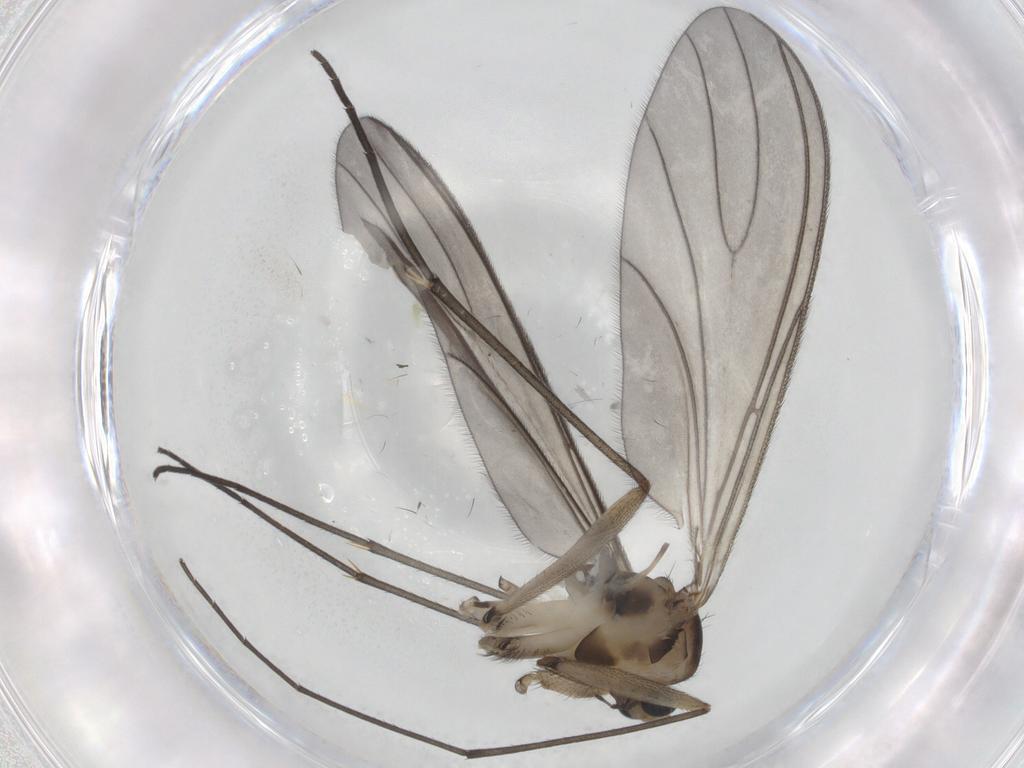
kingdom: Animalia
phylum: Arthropoda
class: Insecta
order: Diptera
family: Sciaridae
